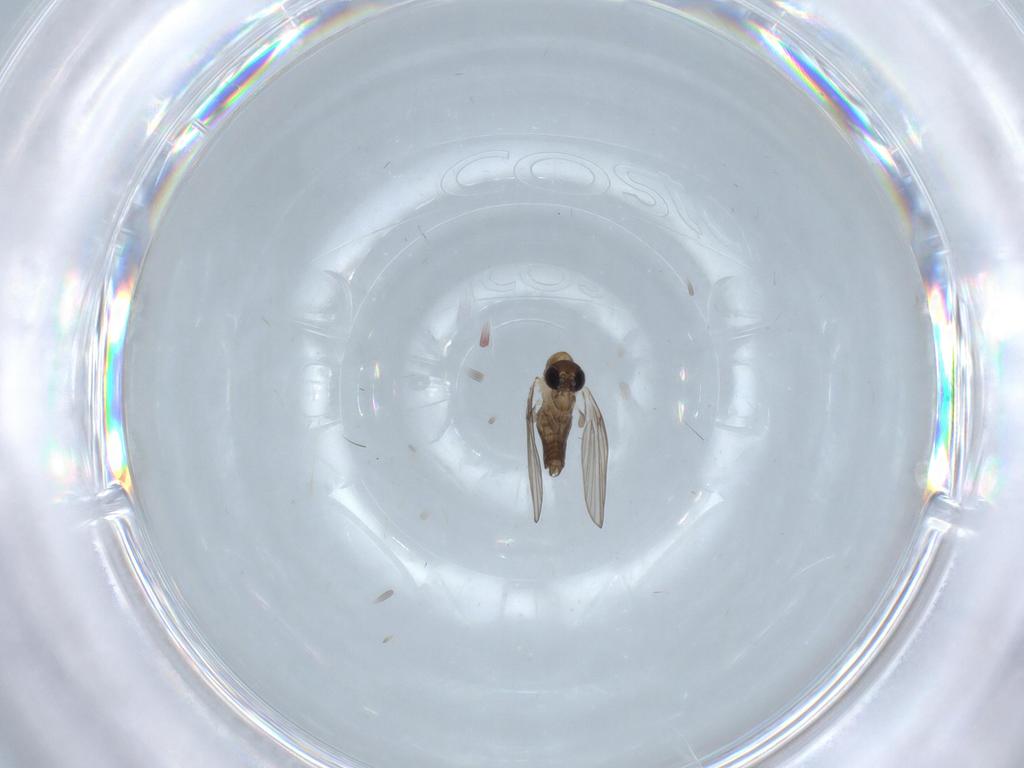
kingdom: Animalia
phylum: Arthropoda
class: Insecta
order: Diptera
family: Psychodidae
